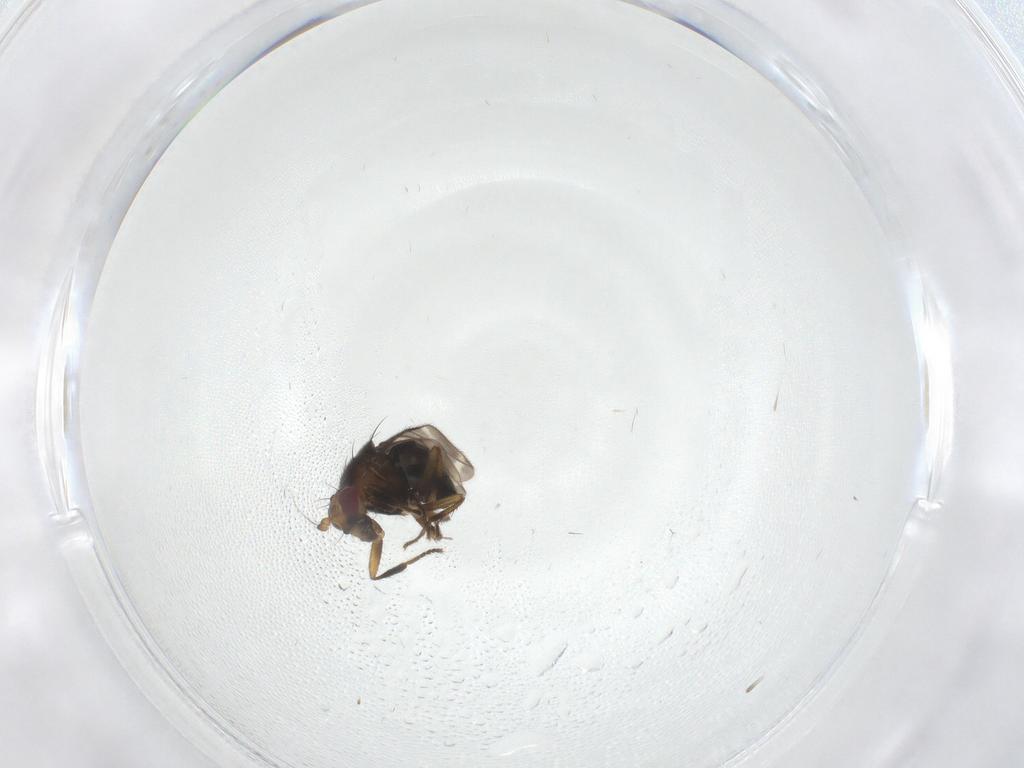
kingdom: Animalia
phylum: Arthropoda
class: Insecta
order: Diptera
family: Sphaeroceridae
